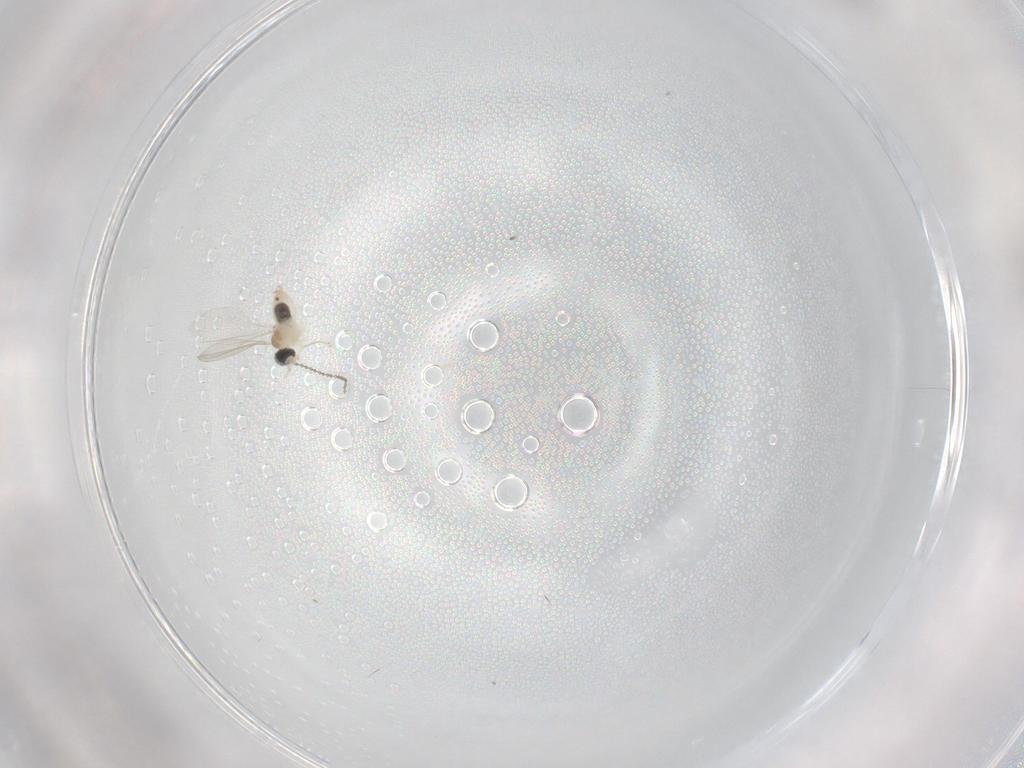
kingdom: Animalia
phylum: Arthropoda
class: Insecta
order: Diptera
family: Cecidomyiidae
